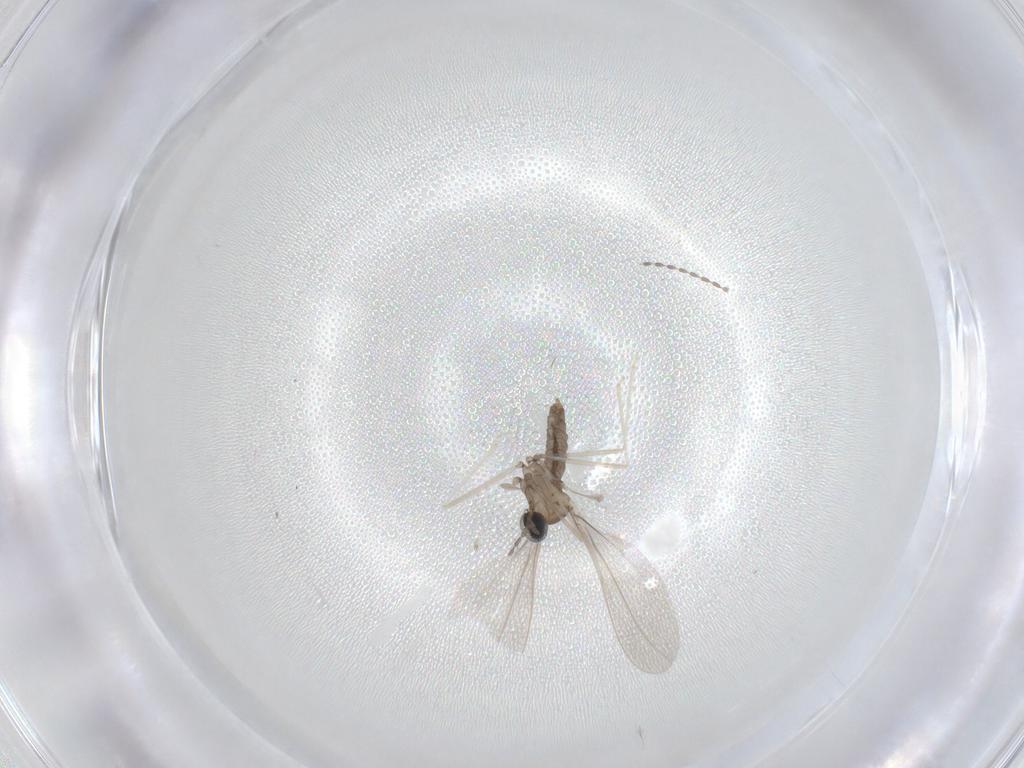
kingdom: Animalia
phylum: Arthropoda
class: Insecta
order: Diptera
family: Cecidomyiidae
